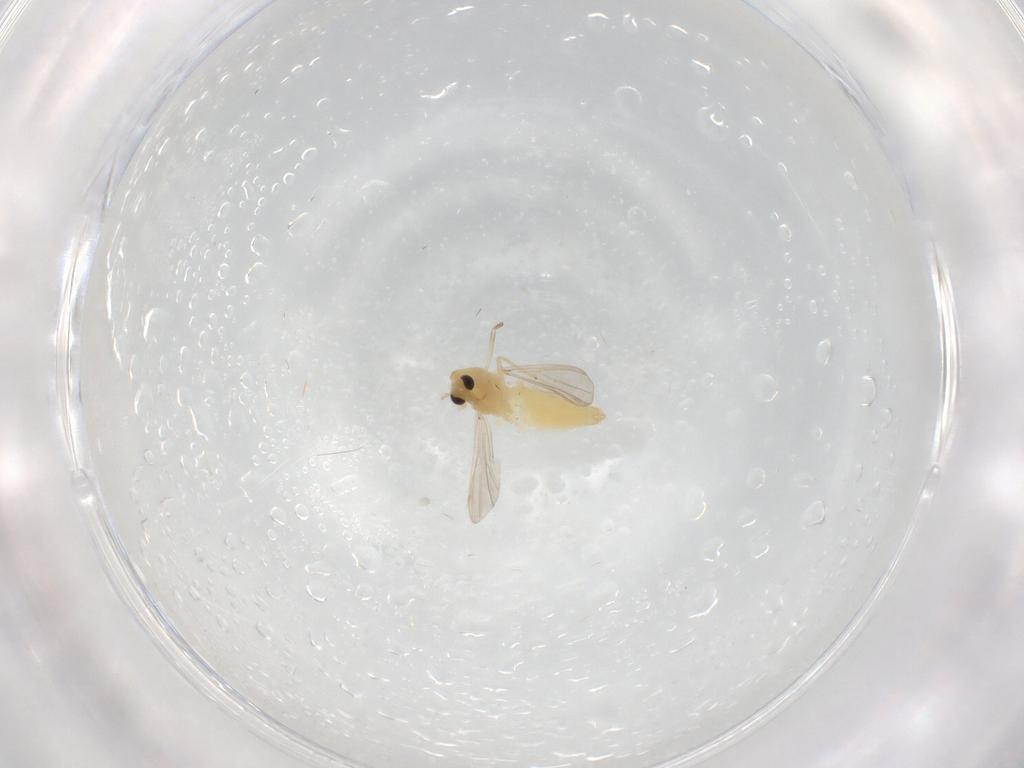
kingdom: Animalia
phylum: Arthropoda
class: Insecta
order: Diptera
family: Chironomidae
